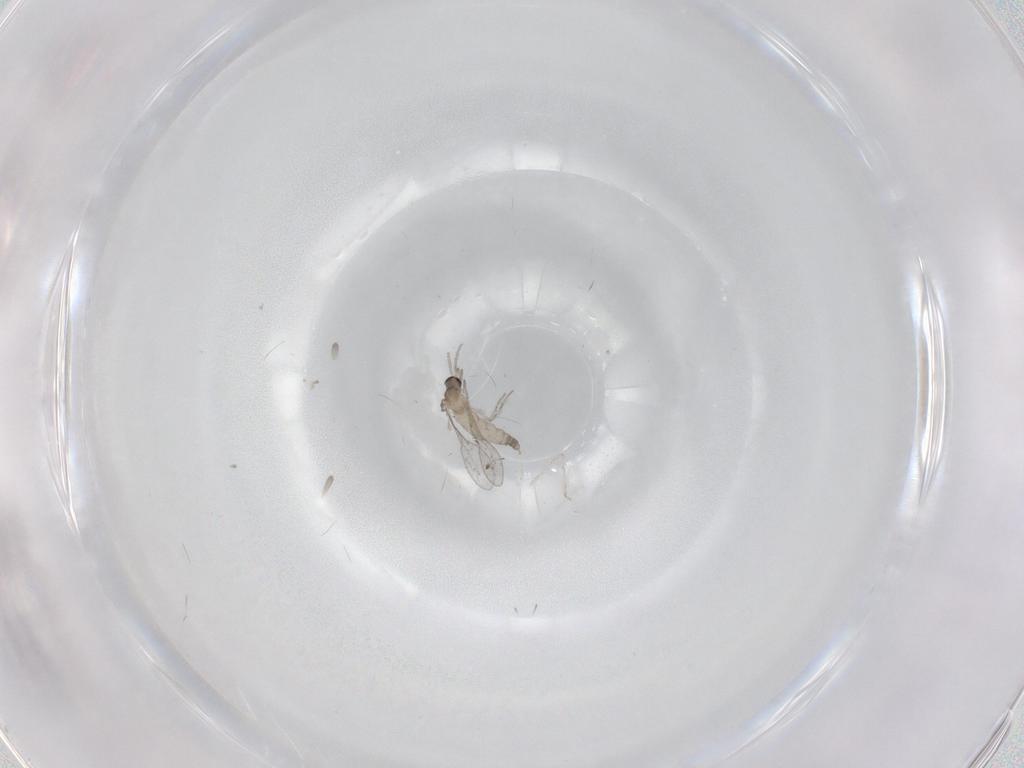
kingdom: Animalia
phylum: Arthropoda
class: Insecta
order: Diptera
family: Cecidomyiidae
